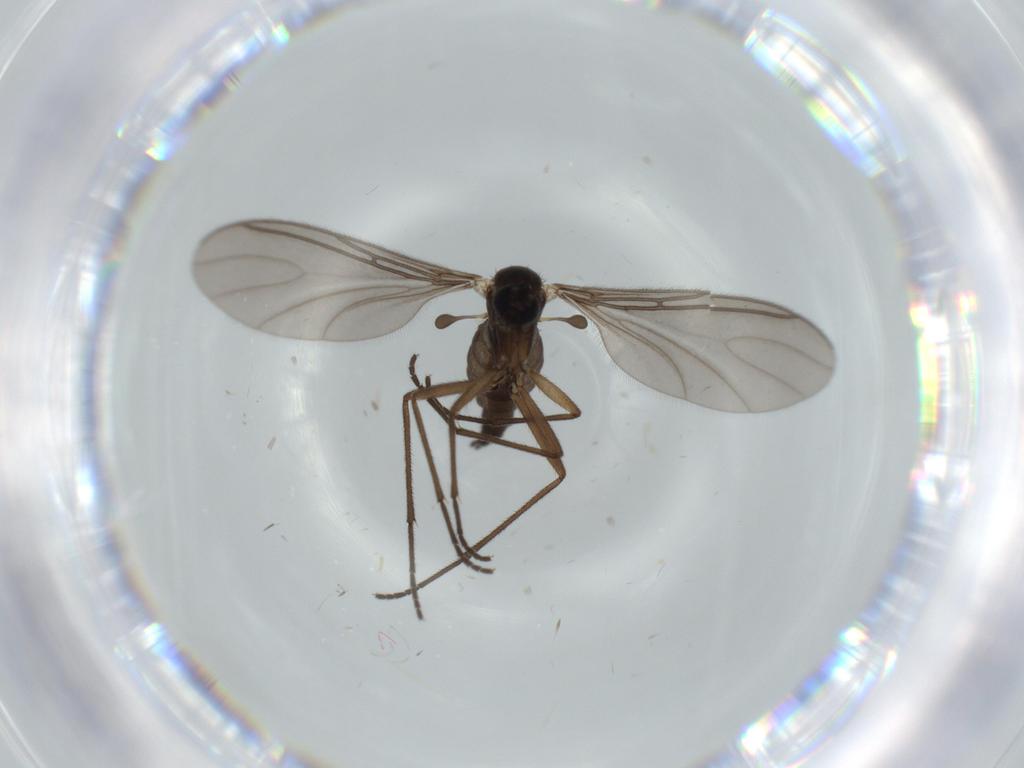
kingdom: Animalia
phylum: Arthropoda
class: Insecta
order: Diptera
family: Sciaridae
